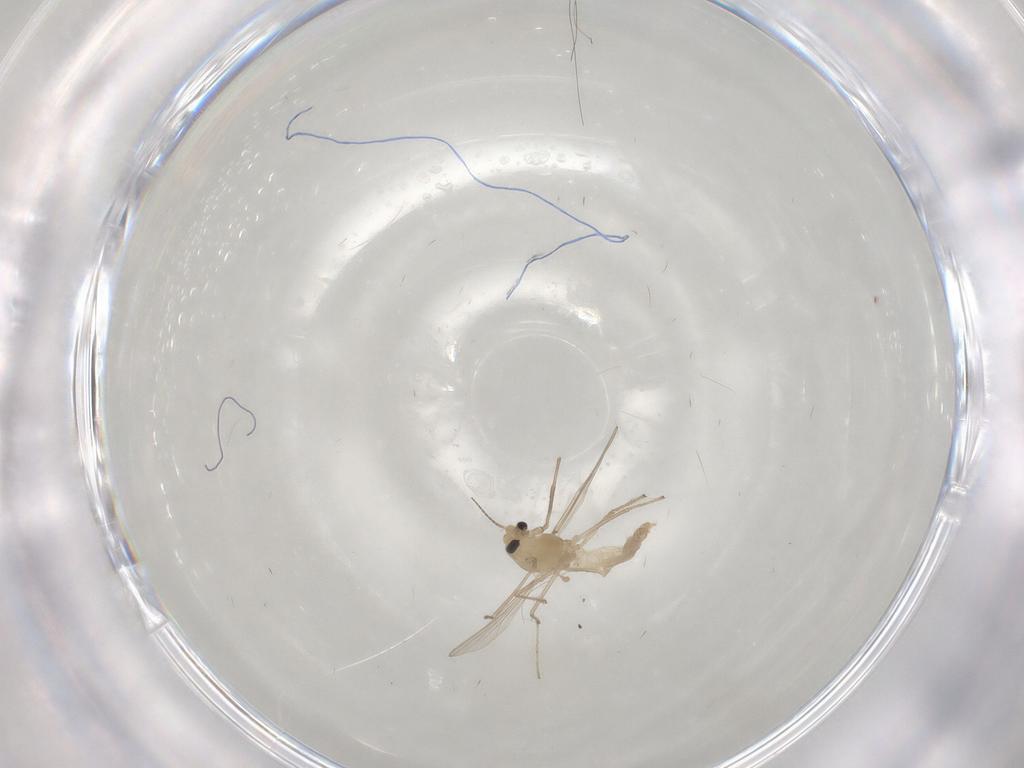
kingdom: Animalia
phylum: Arthropoda
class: Insecta
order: Diptera
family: Chironomidae
